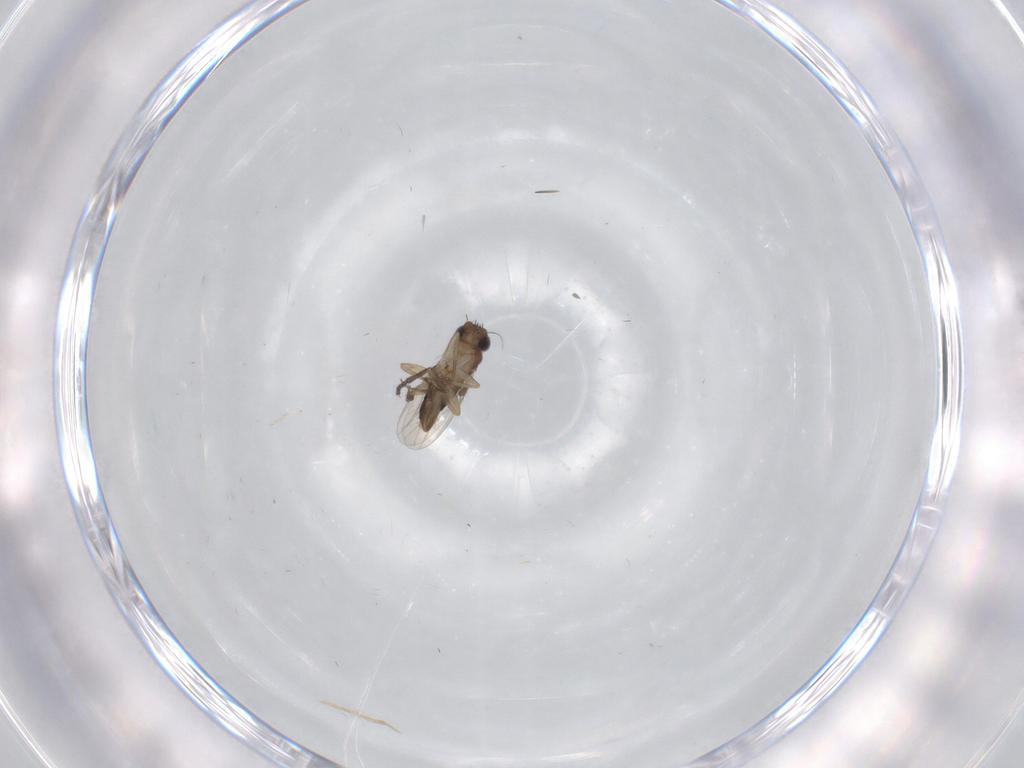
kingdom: Animalia
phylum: Arthropoda
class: Insecta
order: Diptera
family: Psychodidae
